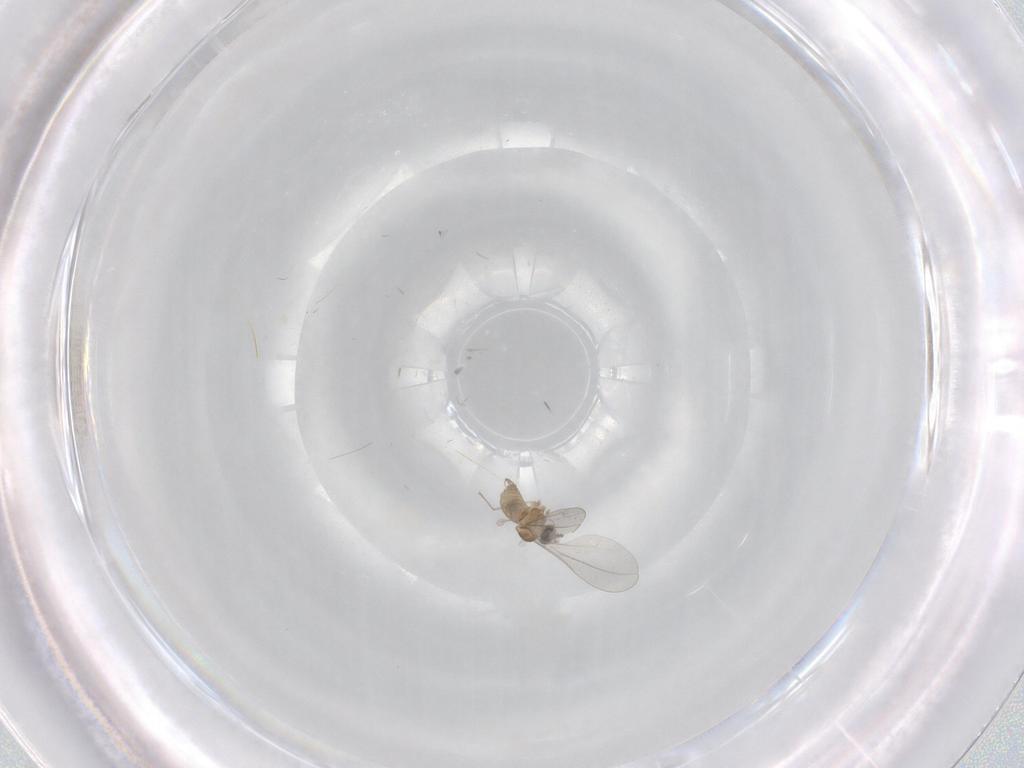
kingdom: Animalia
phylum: Arthropoda
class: Insecta
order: Diptera
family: Cecidomyiidae
